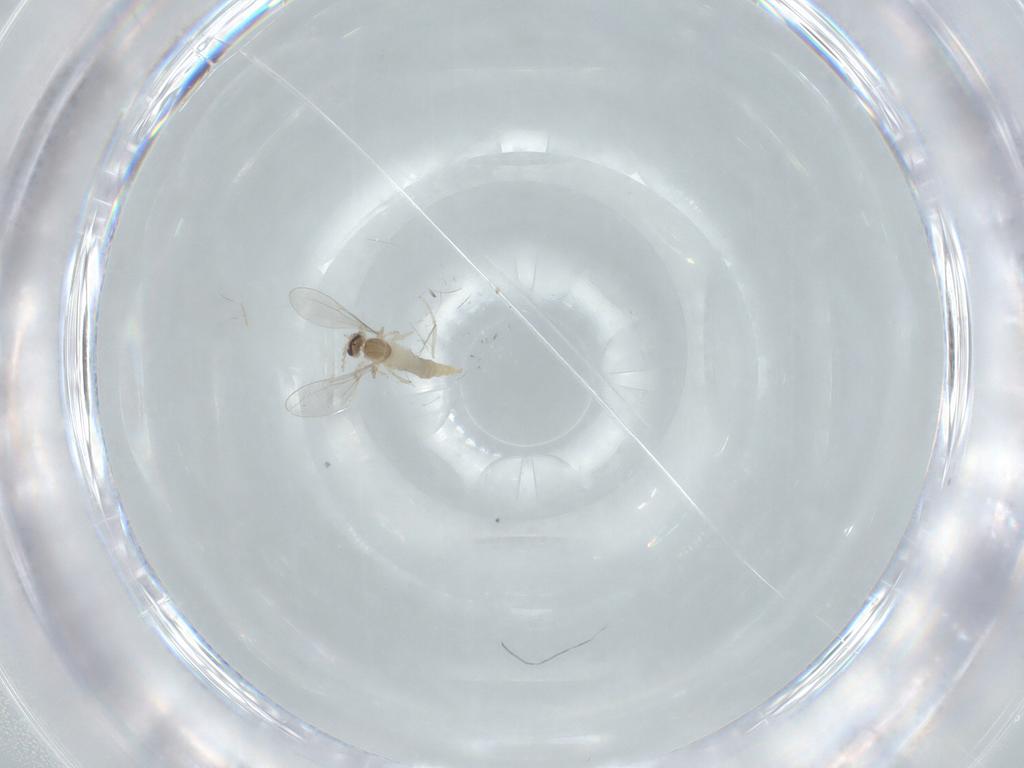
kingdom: Animalia
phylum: Arthropoda
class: Insecta
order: Diptera
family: Cecidomyiidae
